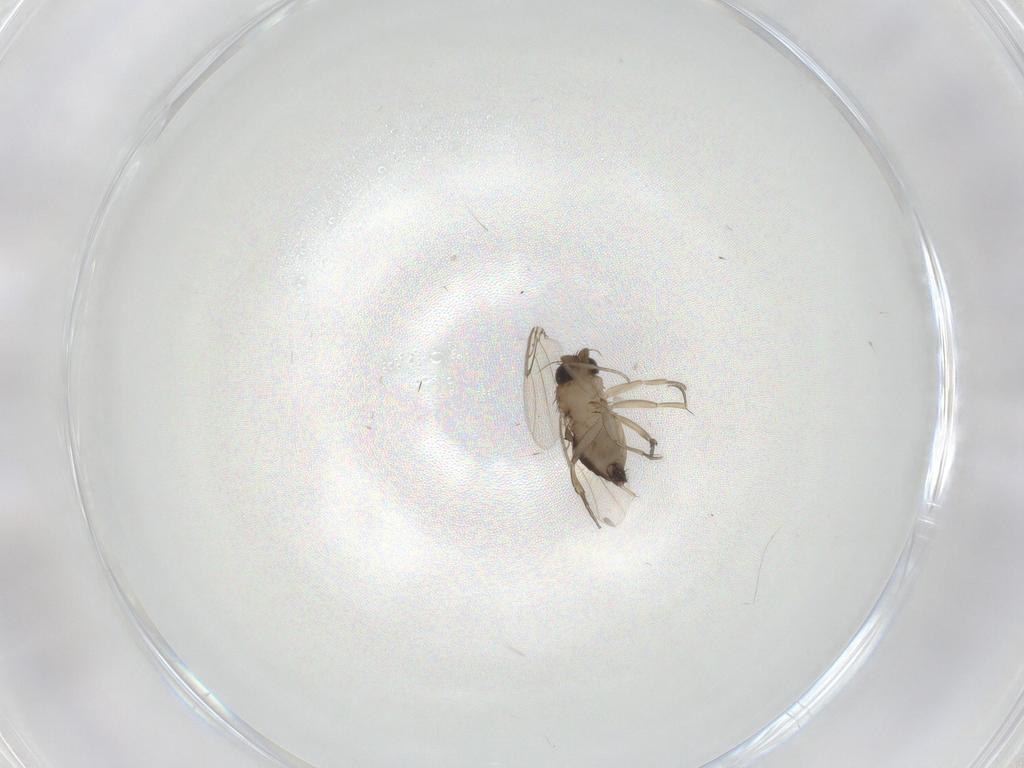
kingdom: Animalia
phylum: Arthropoda
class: Insecta
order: Diptera
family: Phoridae
